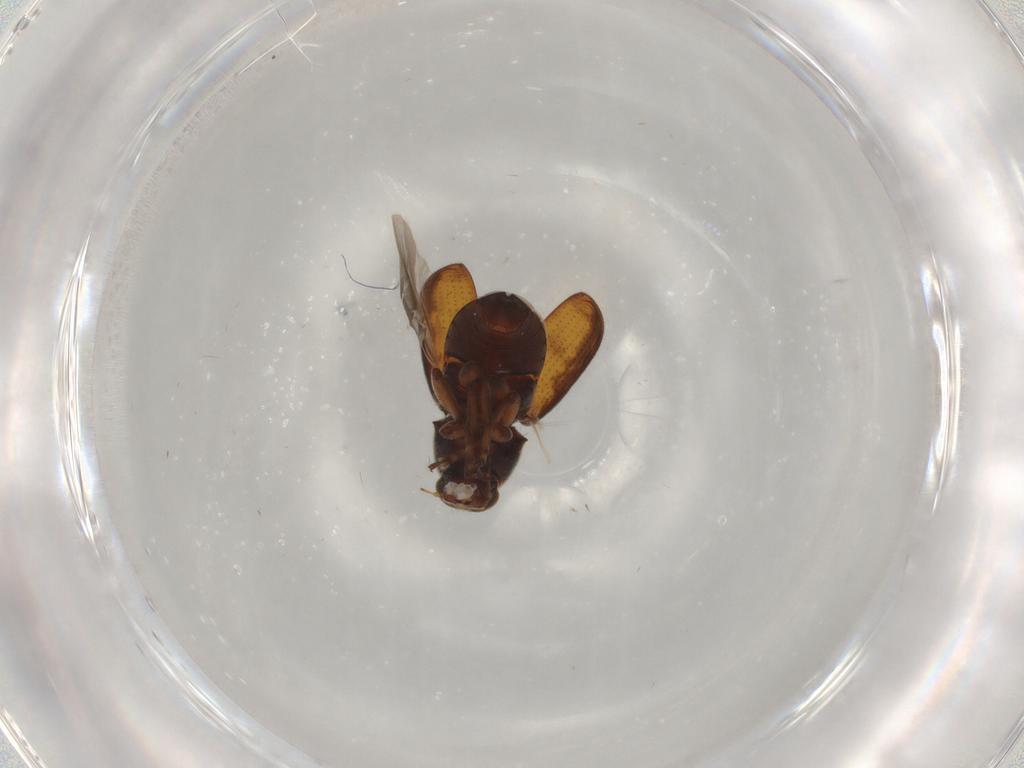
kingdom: Animalia
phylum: Arthropoda
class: Insecta
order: Coleoptera
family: Anthribidae
